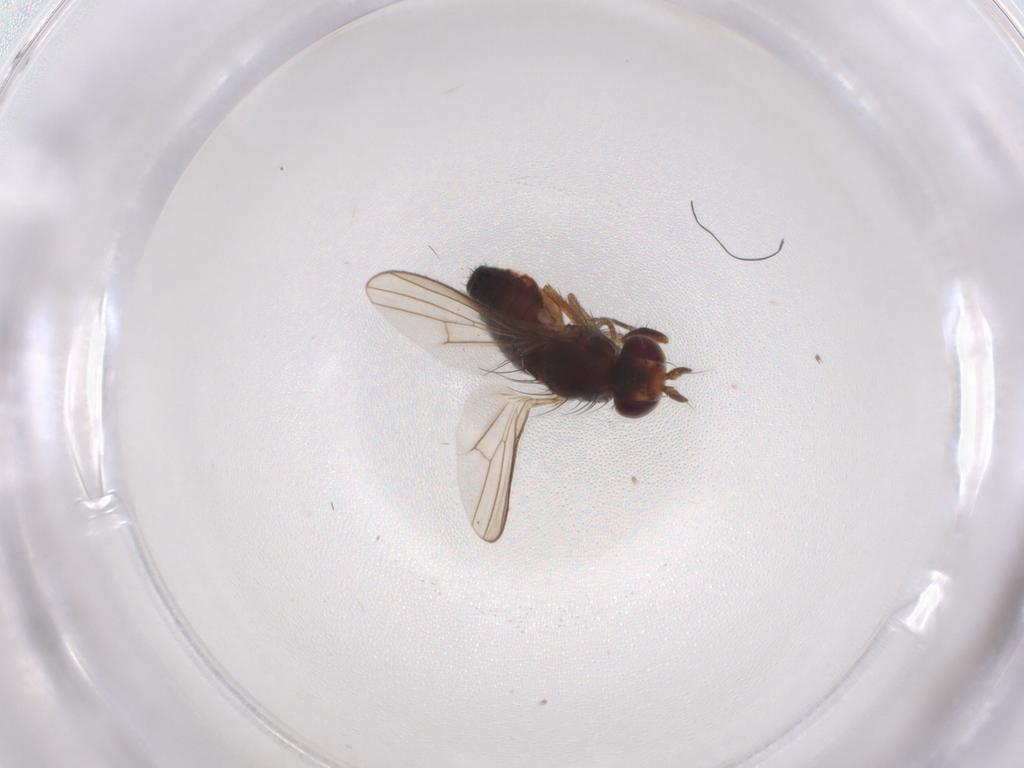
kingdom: Animalia
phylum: Arthropoda
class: Insecta
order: Diptera
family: Heleomyzidae
